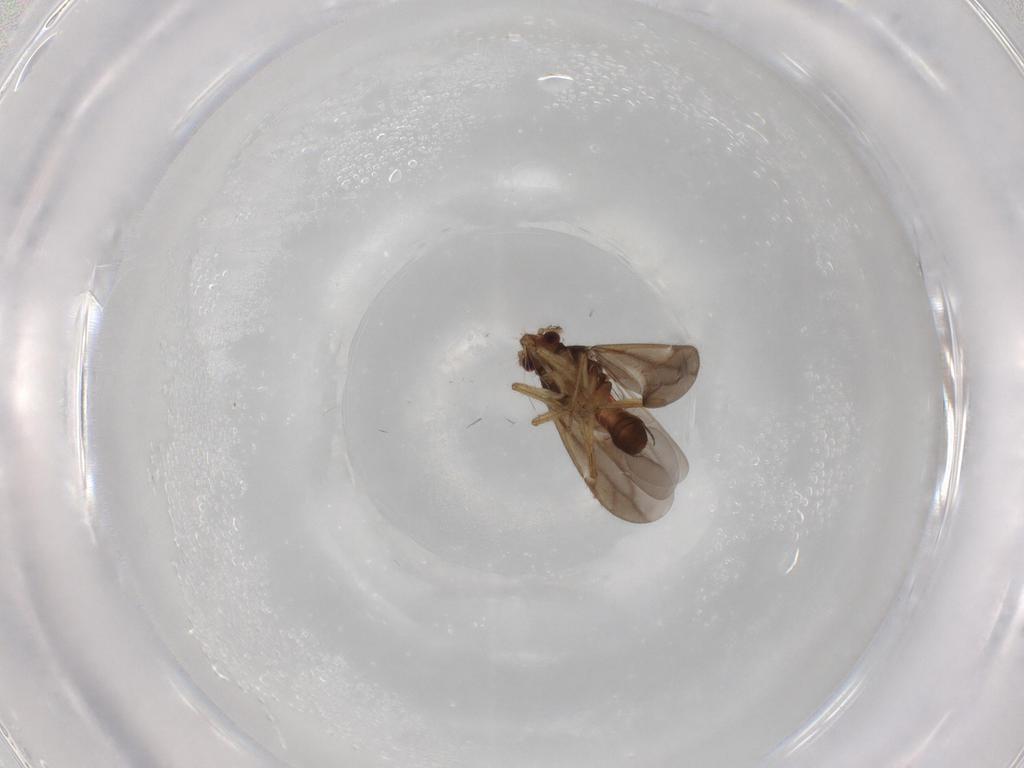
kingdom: Animalia
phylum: Arthropoda
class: Insecta
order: Hemiptera
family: Ceratocombidae
